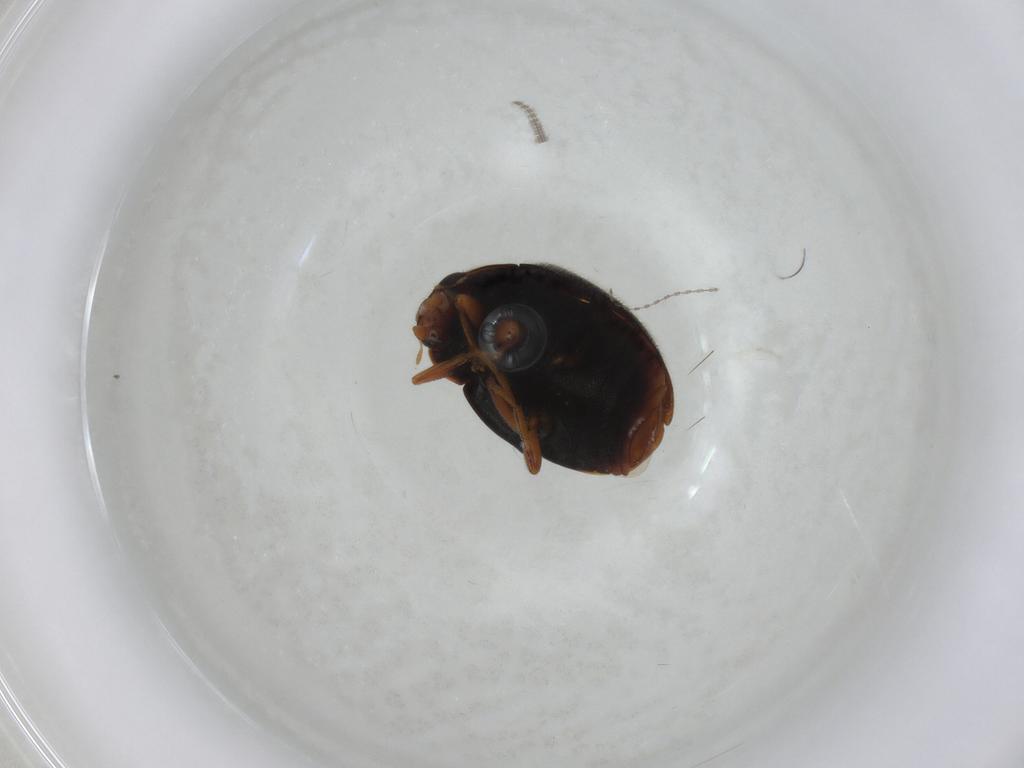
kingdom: Animalia
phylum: Arthropoda
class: Insecta
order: Coleoptera
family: Coccinellidae
